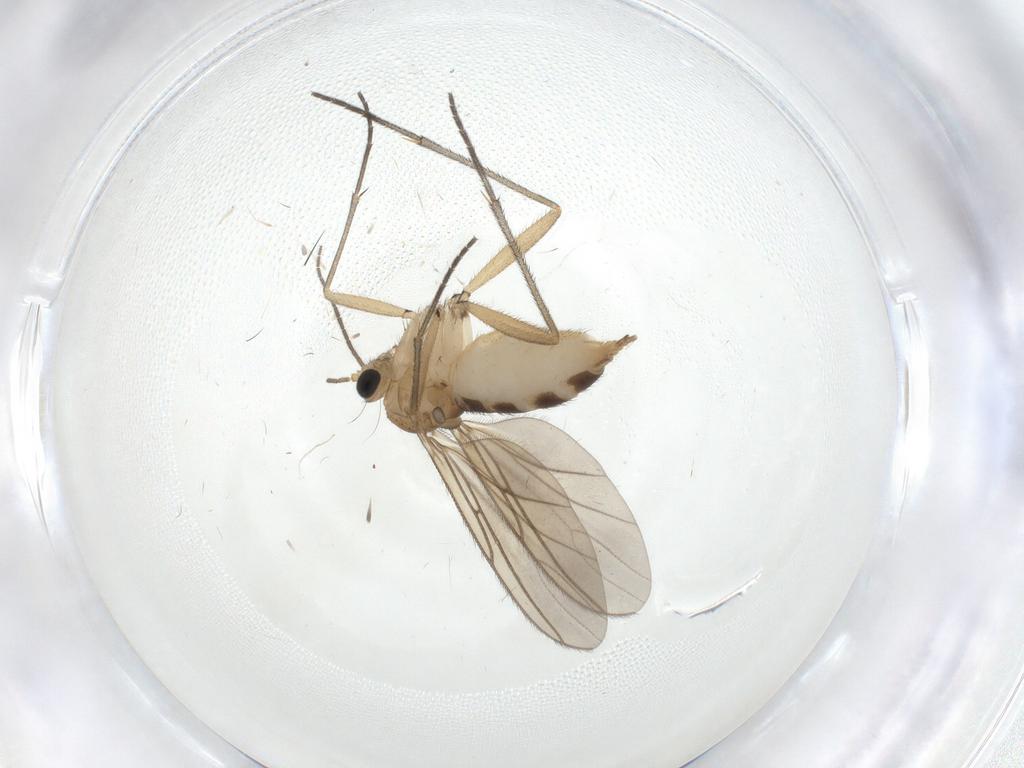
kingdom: Animalia
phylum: Arthropoda
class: Insecta
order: Diptera
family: Sciaridae
